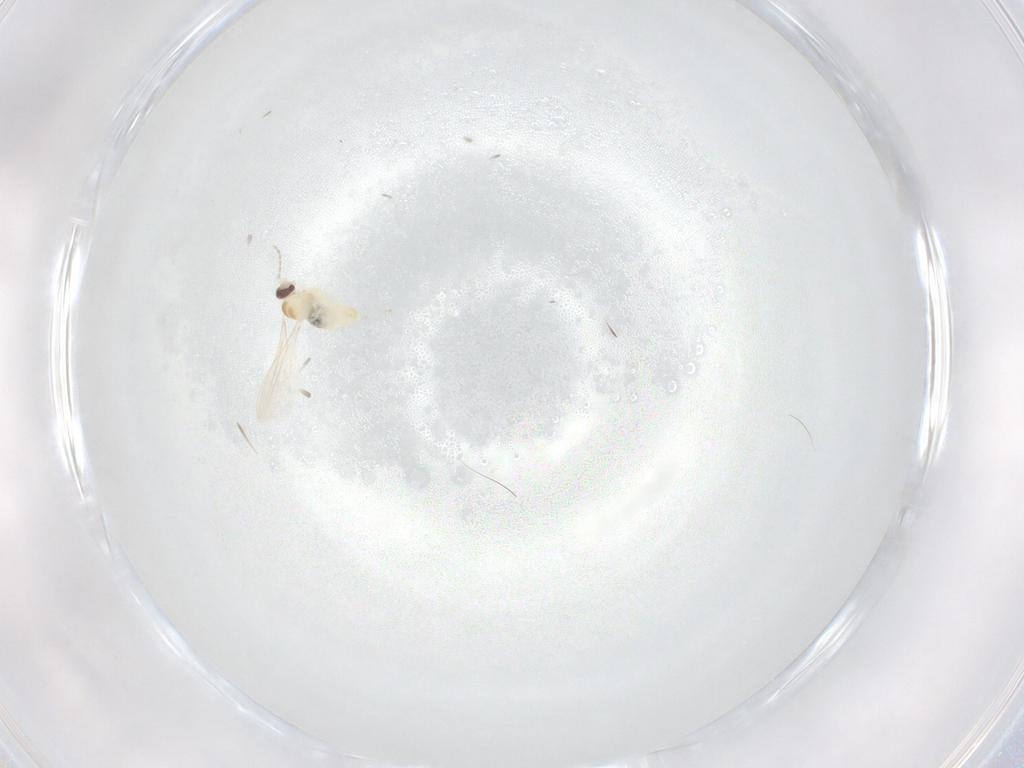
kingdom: Animalia
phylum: Arthropoda
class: Insecta
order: Diptera
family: Cecidomyiidae
